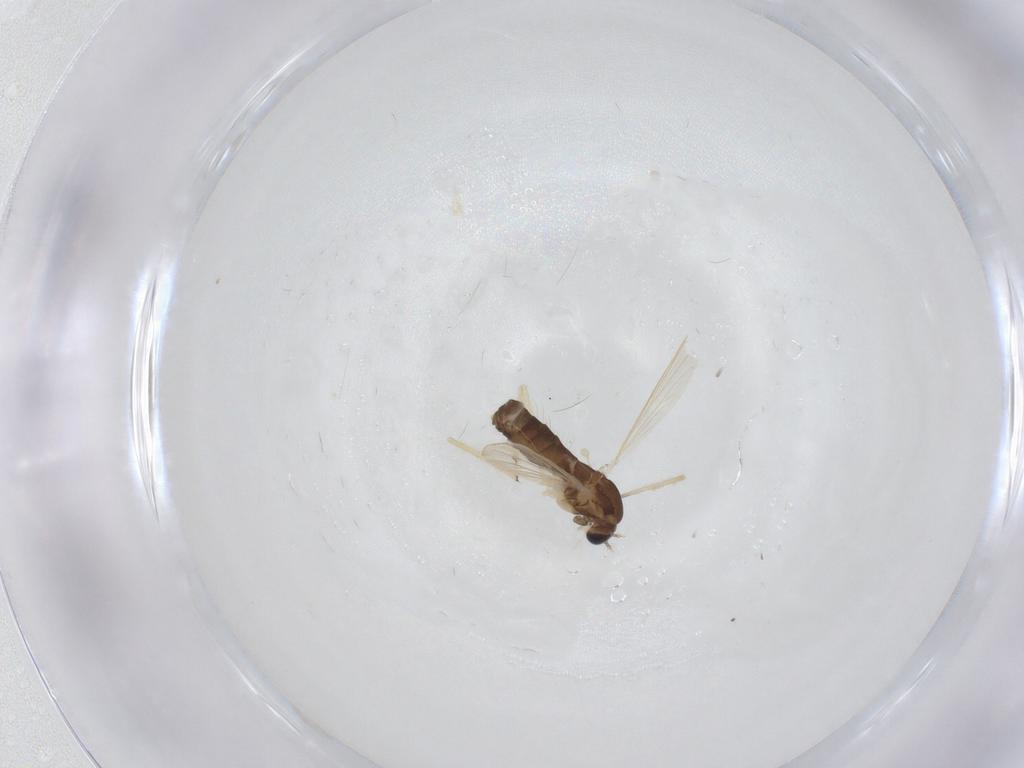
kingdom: Animalia
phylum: Arthropoda
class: Insecta
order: Diptera
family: Chironomidae
